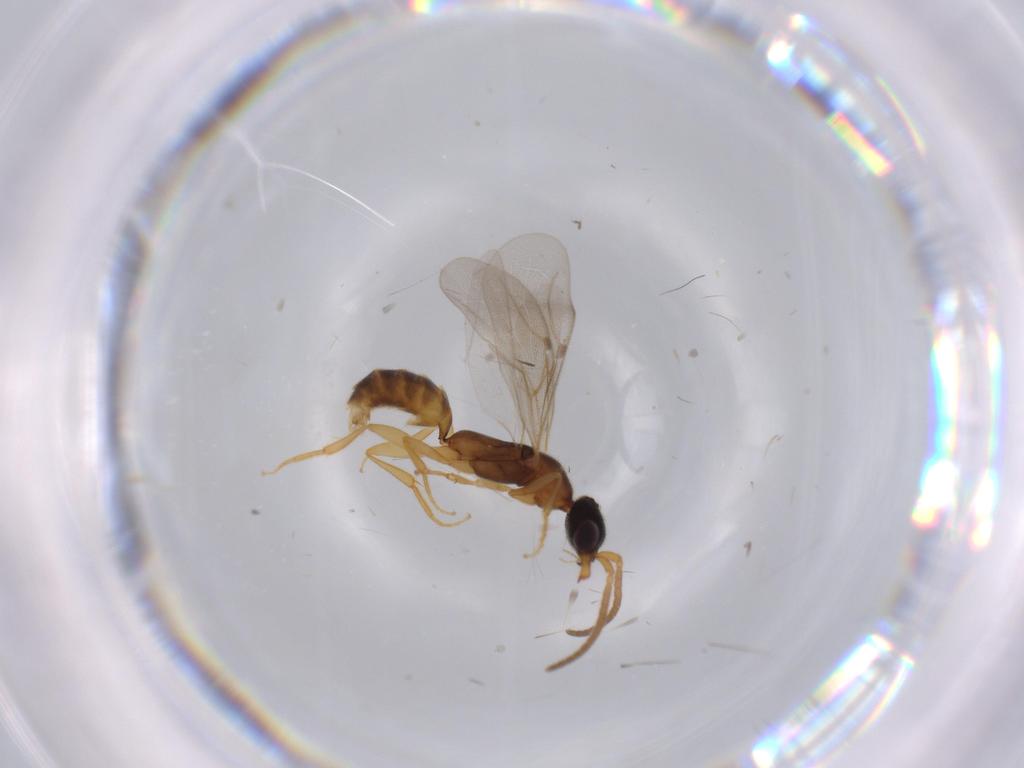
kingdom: Animalia
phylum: Arthropoda
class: Insecta
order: Hymenoptera
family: Bethylidae
